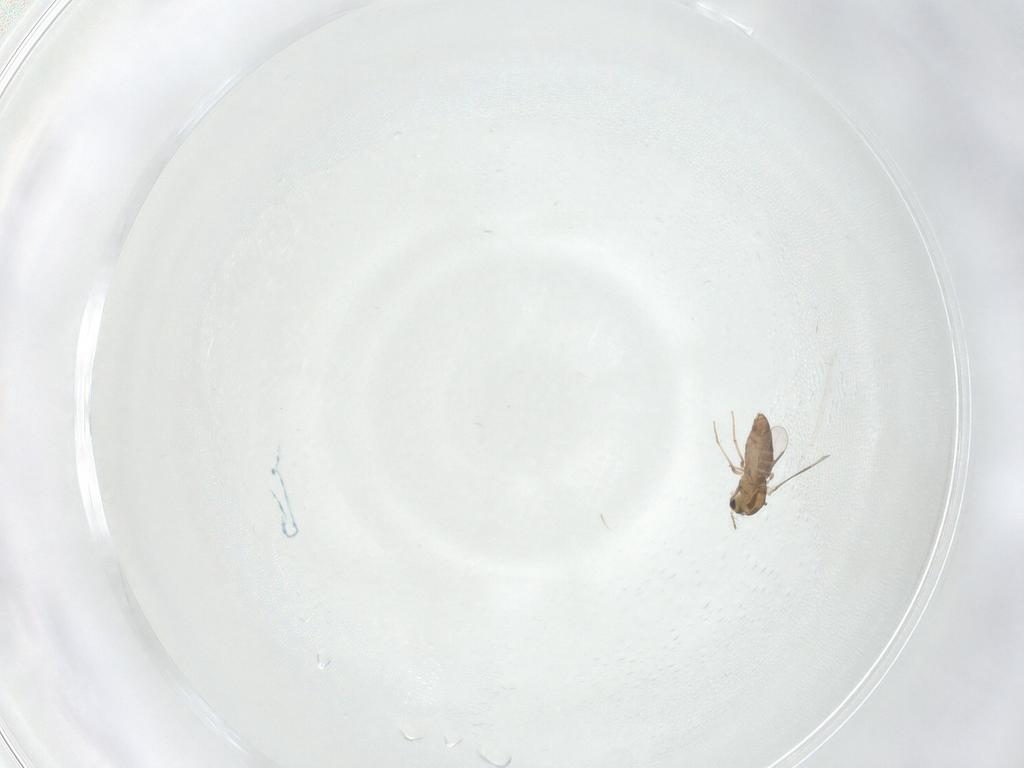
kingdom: Animalia
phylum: Arthropoda
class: Insecta
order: Diptera
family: Chironomidae
